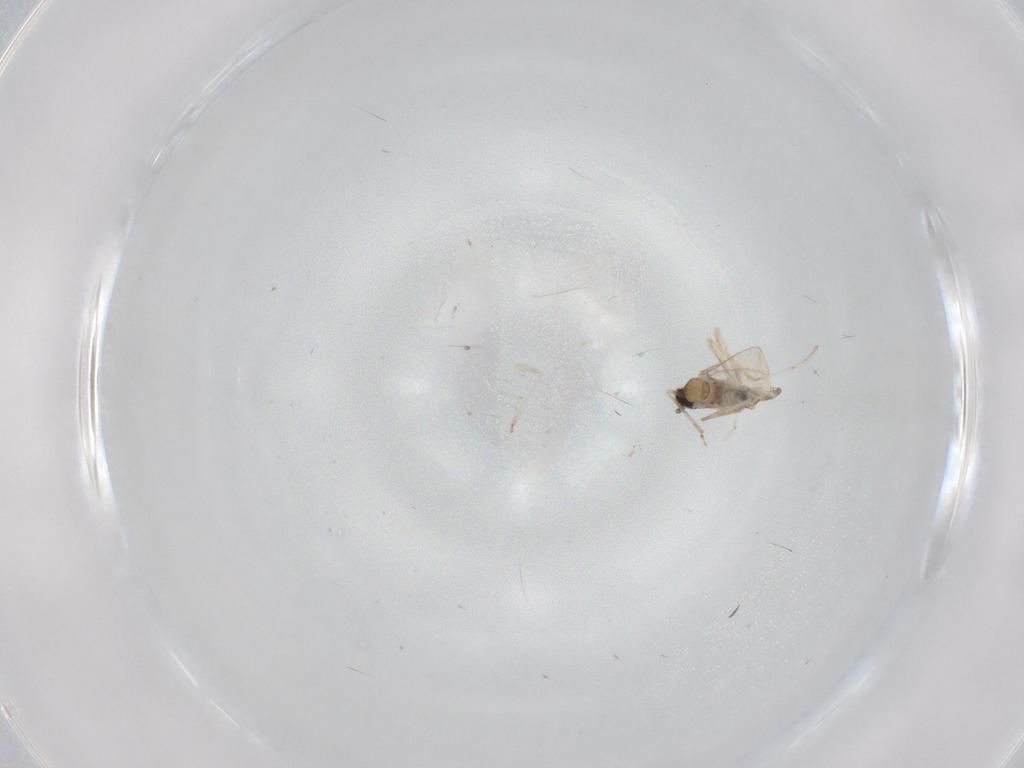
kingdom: Animalia
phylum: Arthropoda
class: Insecta
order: Diptera
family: Cecidomyiidae
